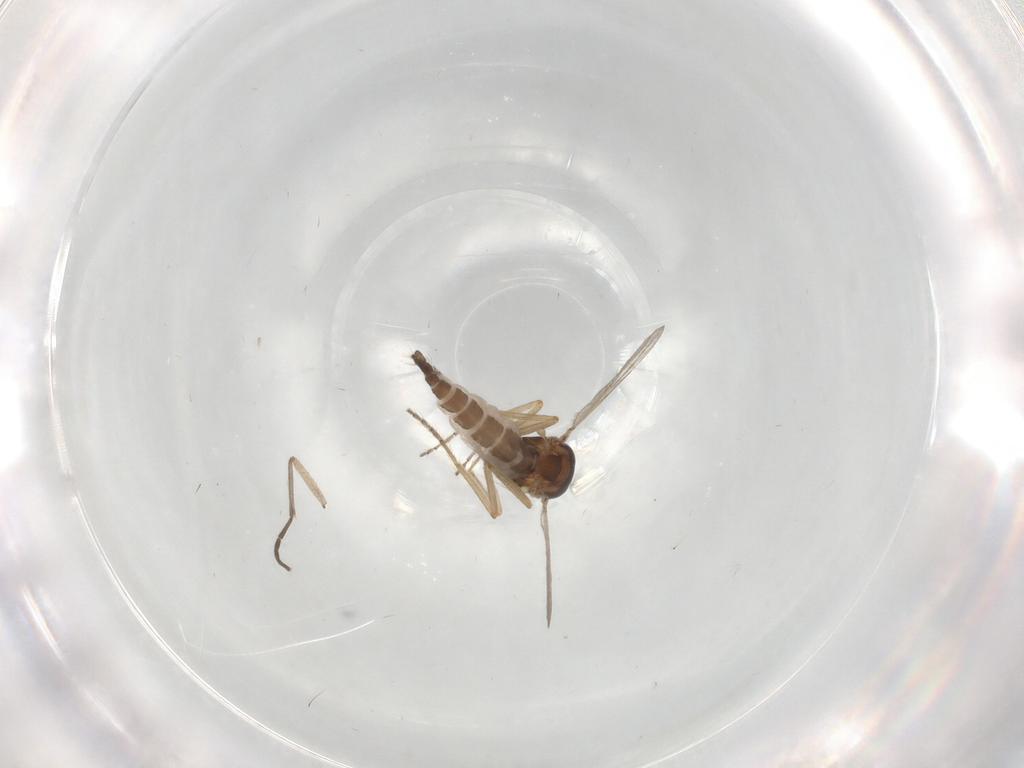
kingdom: Animalia
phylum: Arthropoda
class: Insecta
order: Diptera
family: Sciaridae
